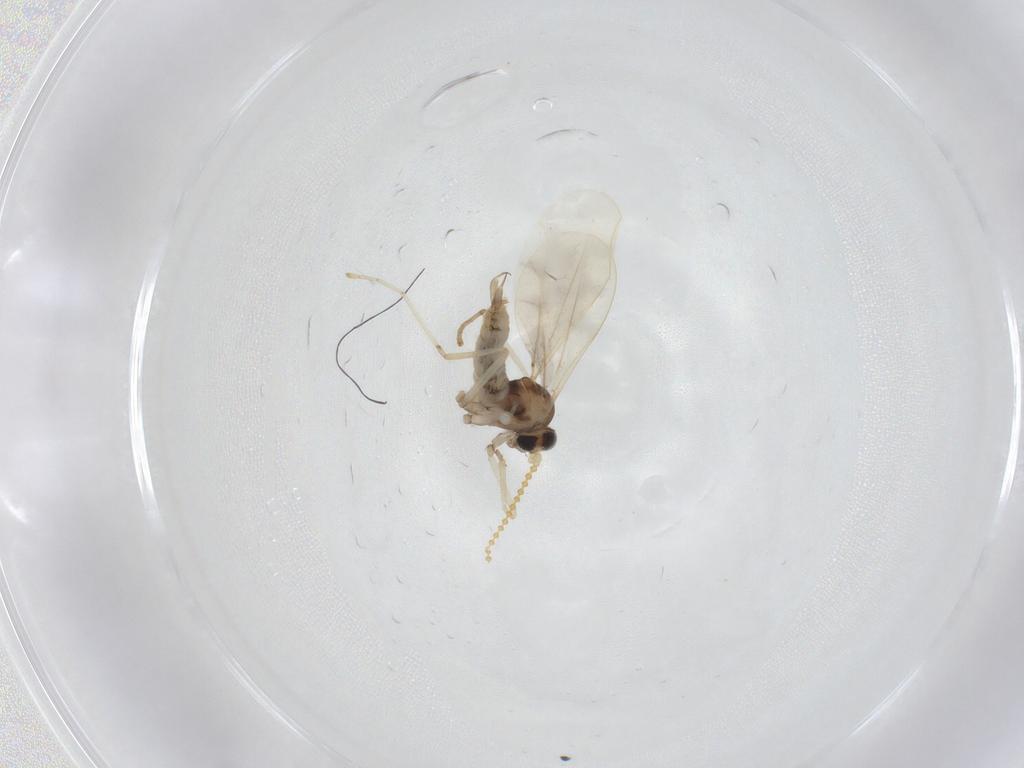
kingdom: Animalia
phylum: Arthropoda
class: Insecta
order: Diptera
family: Cecidomyiidae
